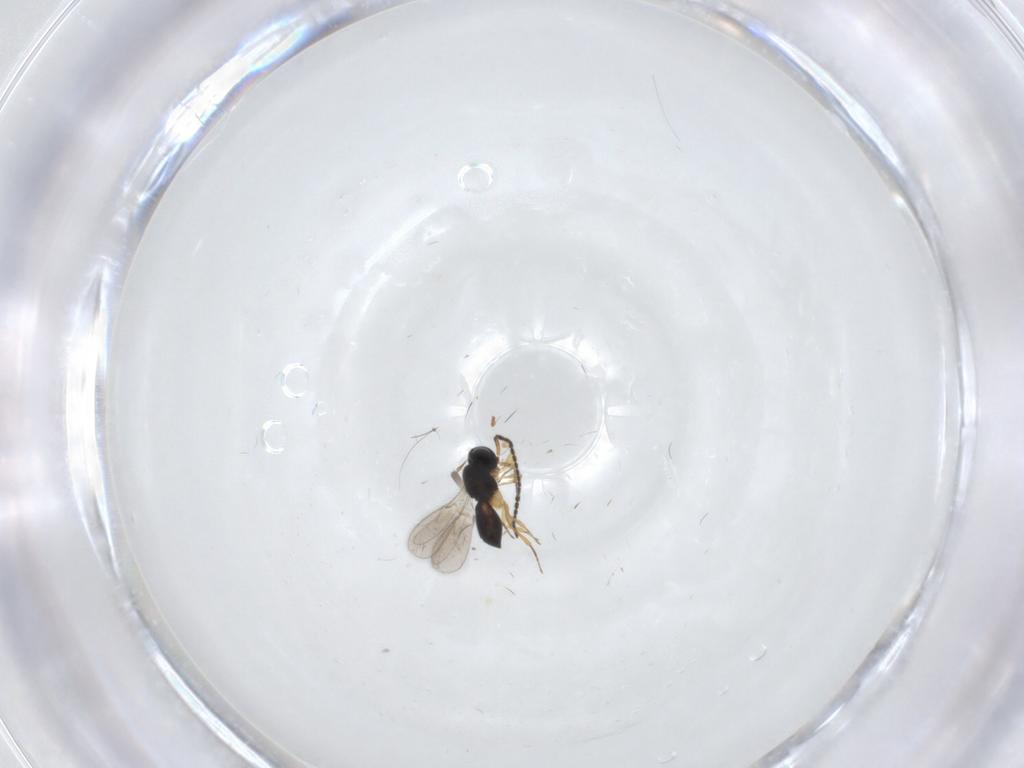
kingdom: Animalia
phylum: Arthropoda
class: Insecta
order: Hymenoptera
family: Scelionidae
